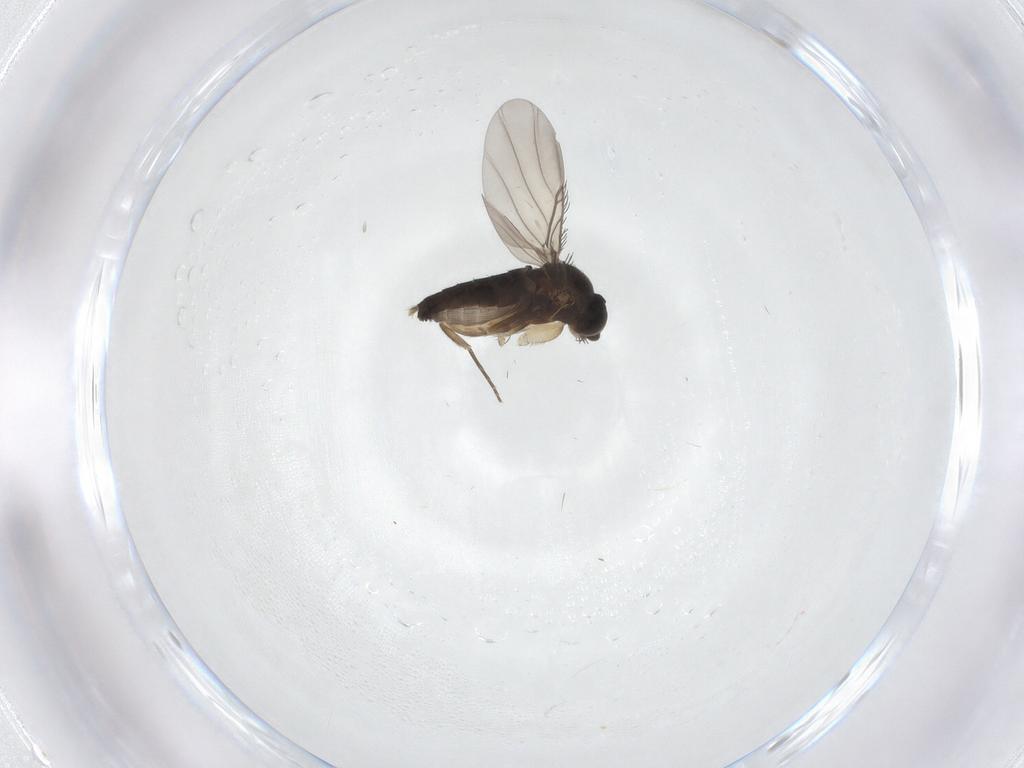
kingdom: Animalia
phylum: Arthropoda
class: Insecta
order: Diptera
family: Phoridae
